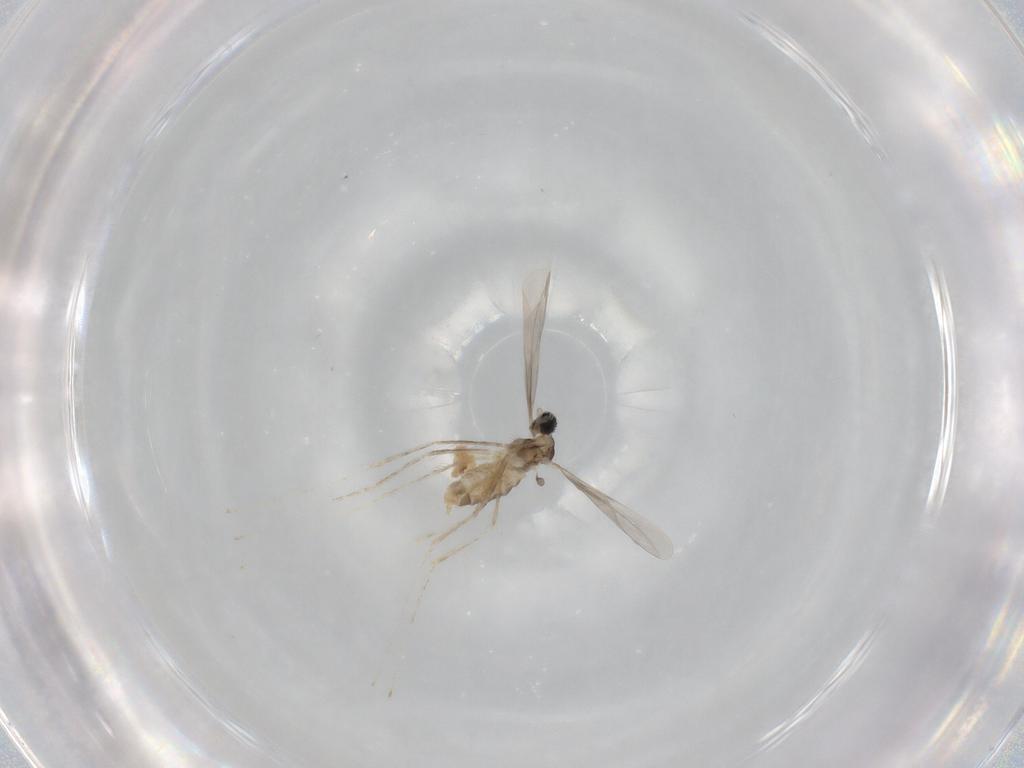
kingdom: Animalia
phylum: Arthropoda
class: Insecta
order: Diptera
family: Cecidomyiidae
